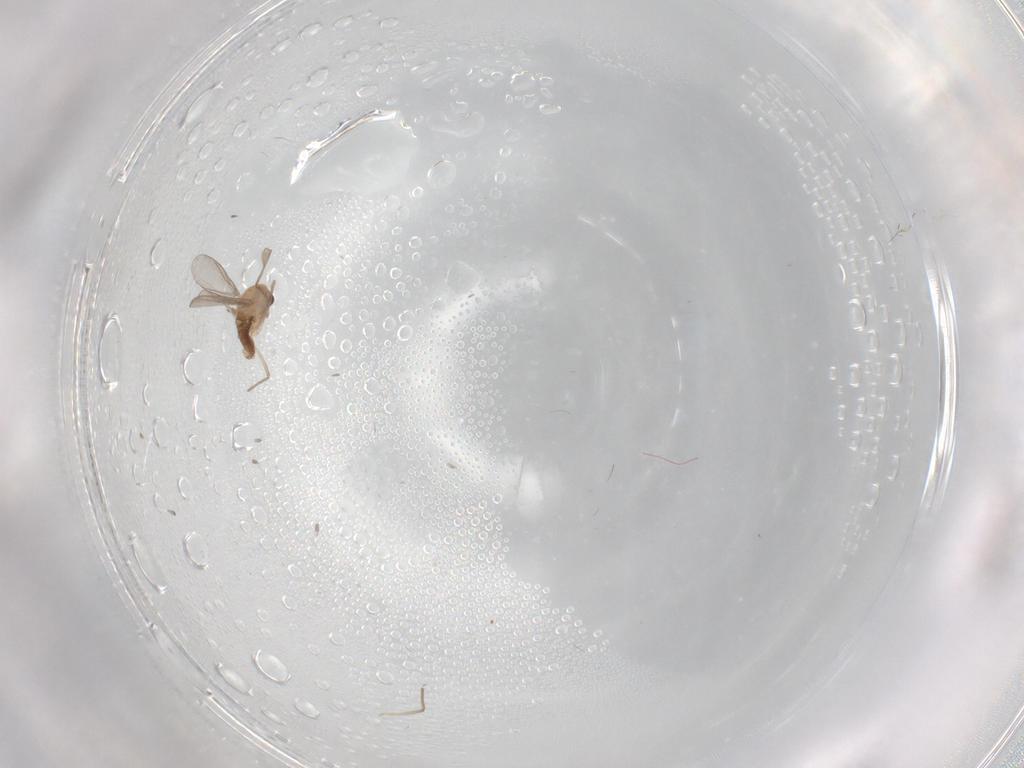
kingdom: Animalia
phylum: Arthropoda
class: Insecta
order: Diptera
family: Chironomidae
